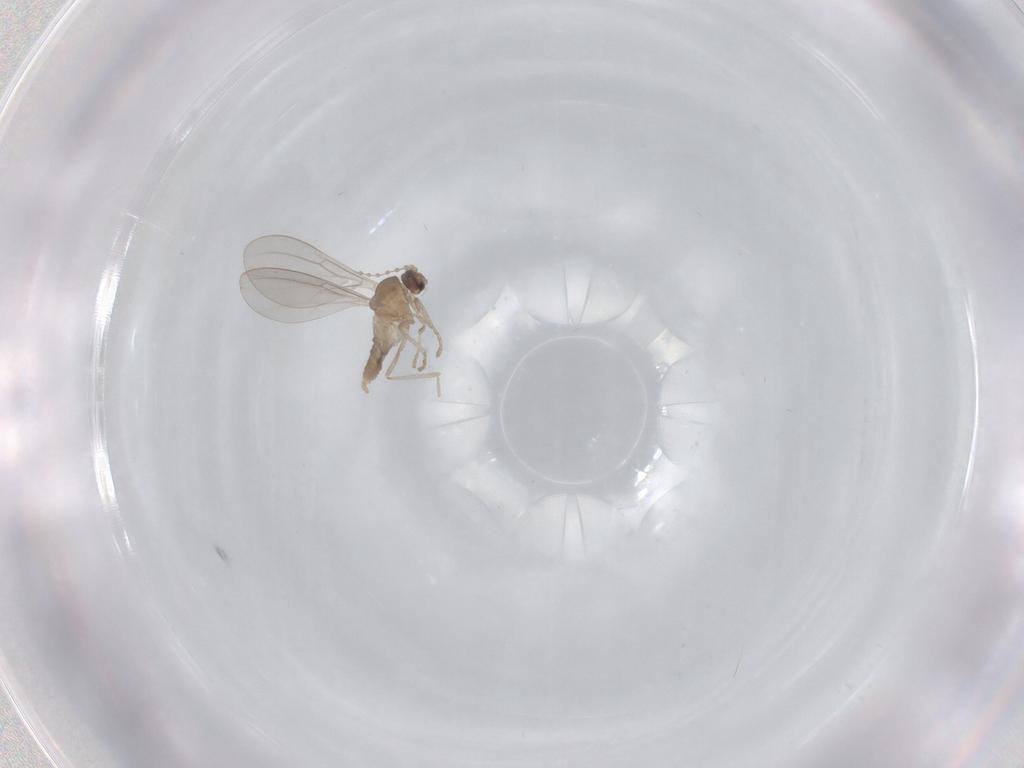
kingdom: Animalia
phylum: Arthropoda
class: Insecta
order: Diptera
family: Cecidomyiidae
